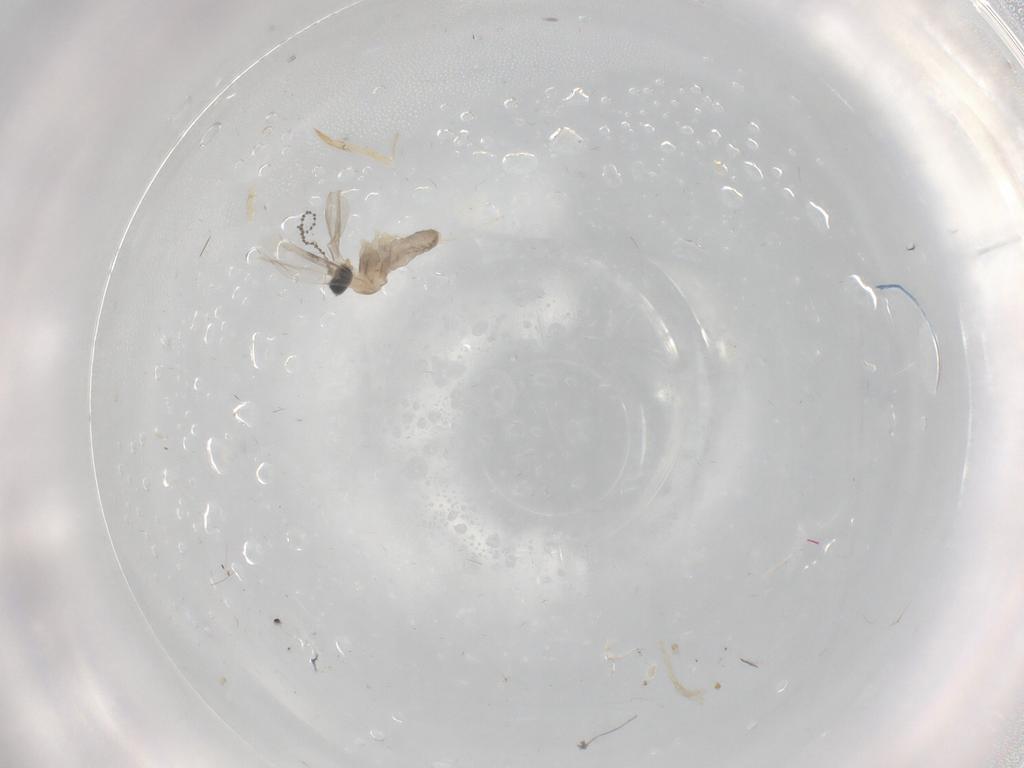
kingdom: Animalia
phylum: Arthropoda
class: Insecta
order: Diptera
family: Cecidomyiidae
